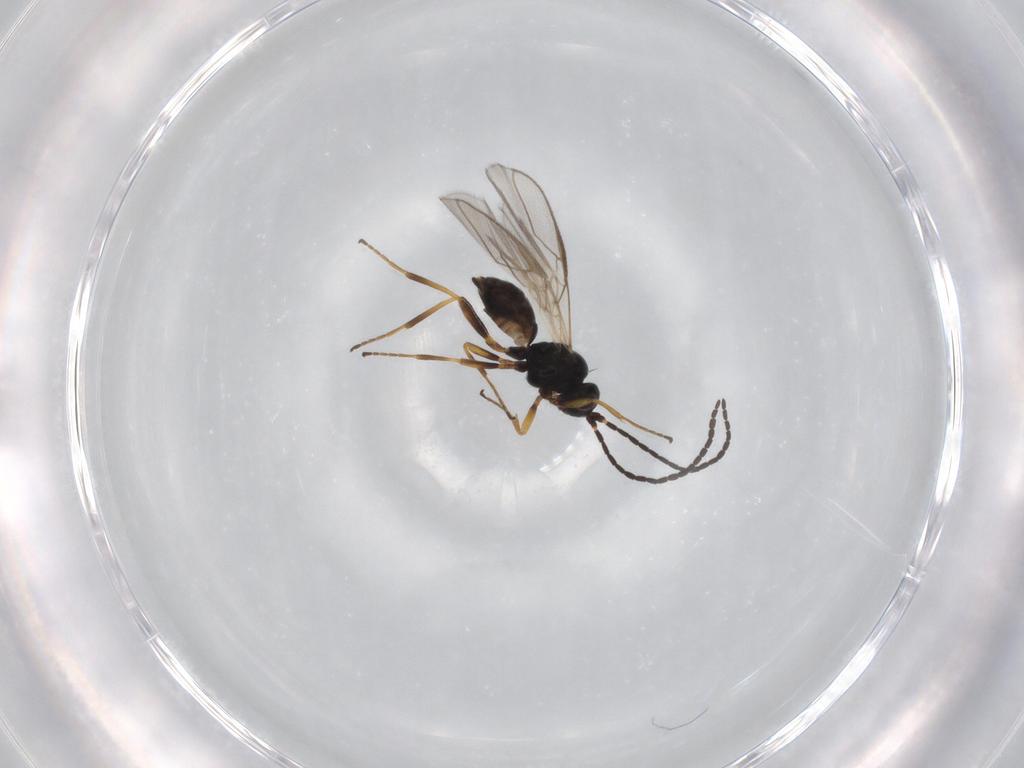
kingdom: Animalia
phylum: Arthropoda
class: Insecta
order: Hymenoptera
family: Braconidae
